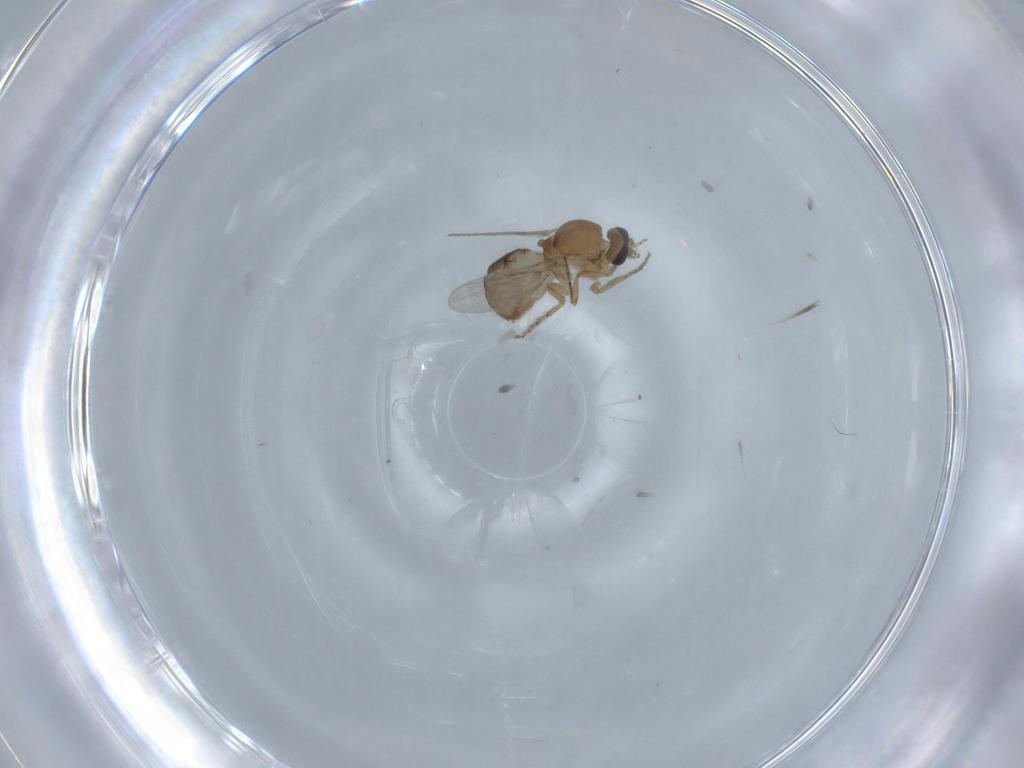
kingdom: Animalia
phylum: Arthropoda
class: Insecta
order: Diptera
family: Ceratopogonidae
